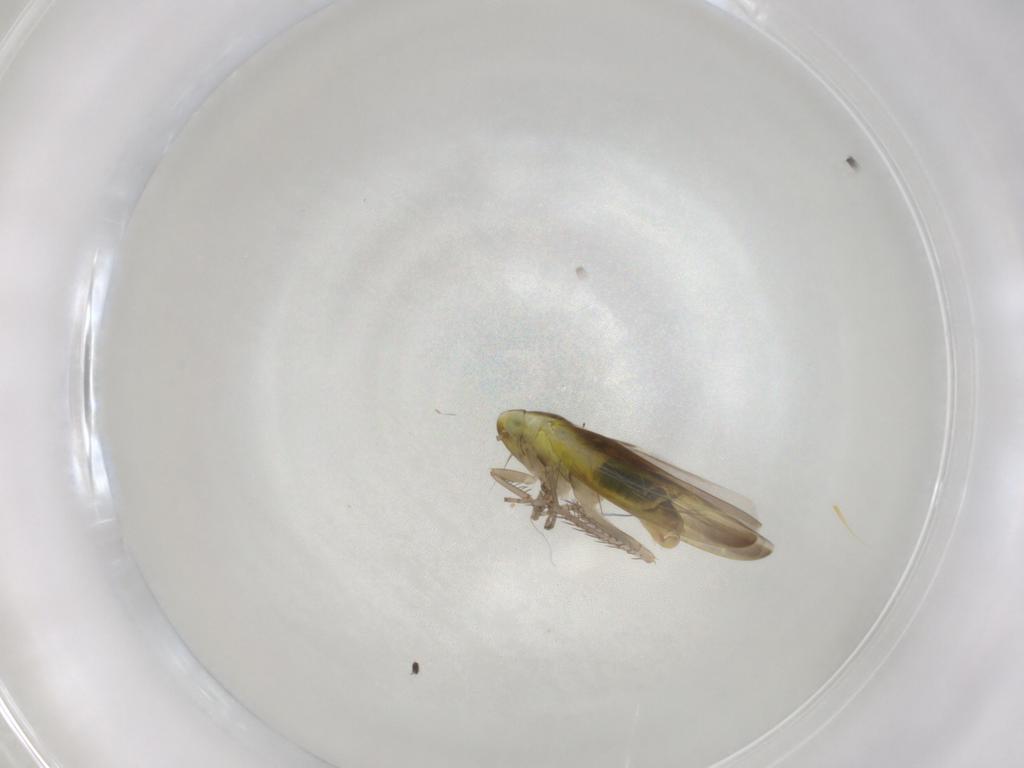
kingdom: Animalia
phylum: Arthropoda
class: Insecta
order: Hemiptera
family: Cicadellidae
